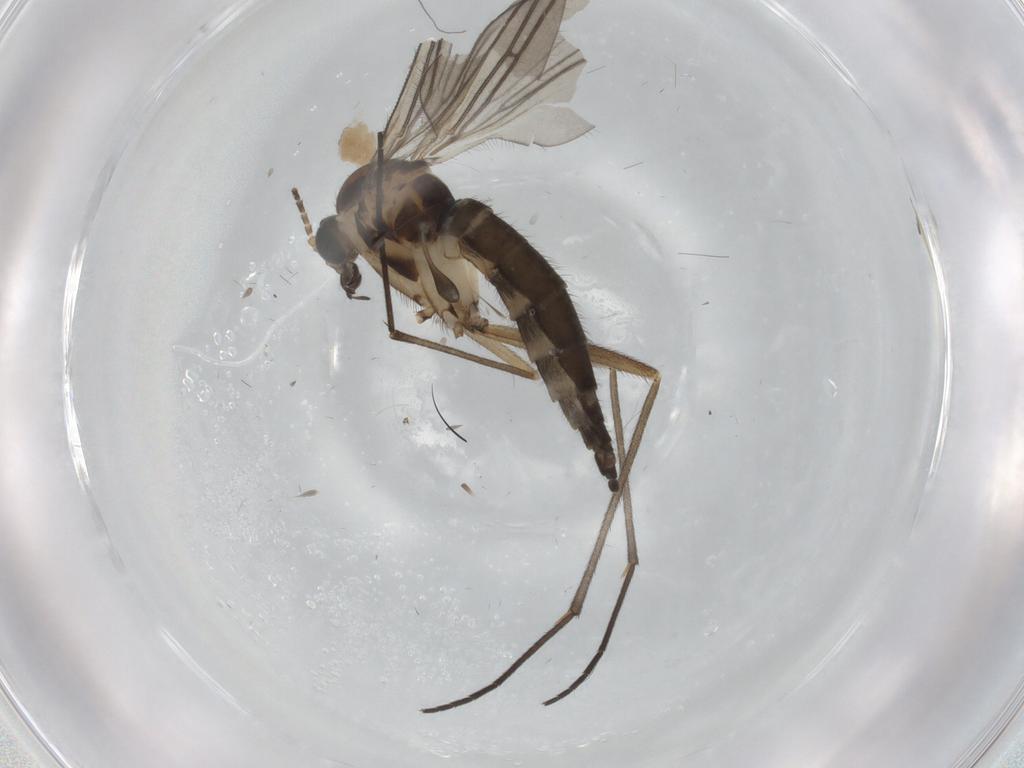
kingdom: Animalia
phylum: Arthropoda
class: Insecta
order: Diptera
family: Sciaridae
